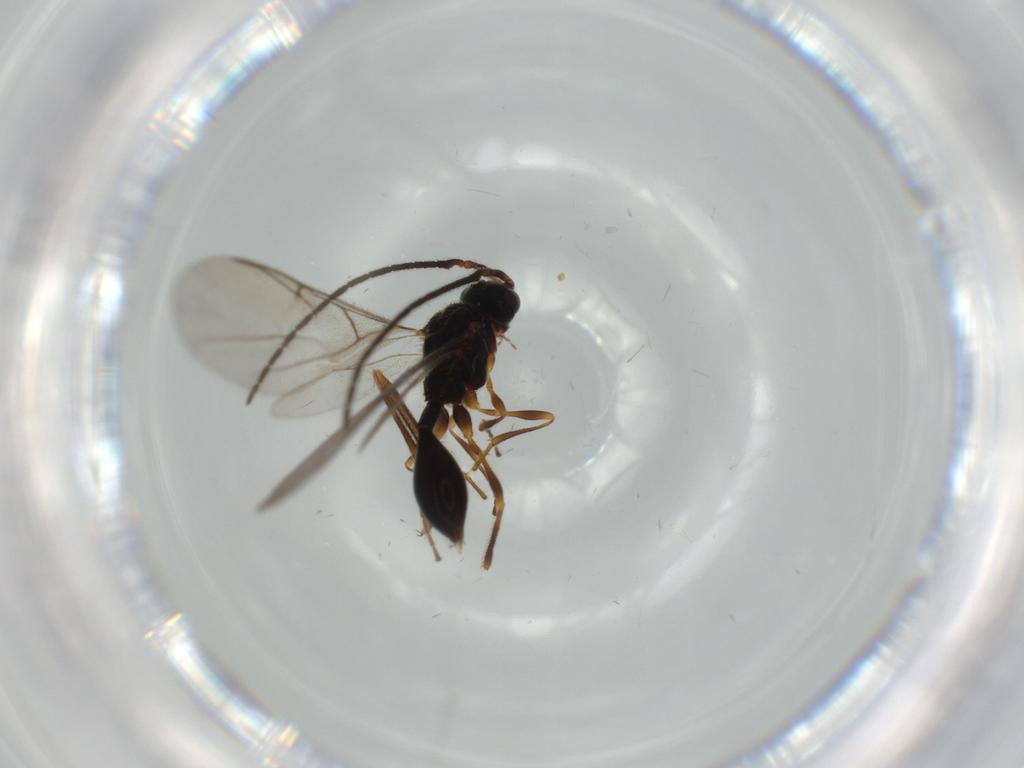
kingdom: Animalia
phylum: Arthropoda
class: Insecta
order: Hymenoptera
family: Diapriidae
